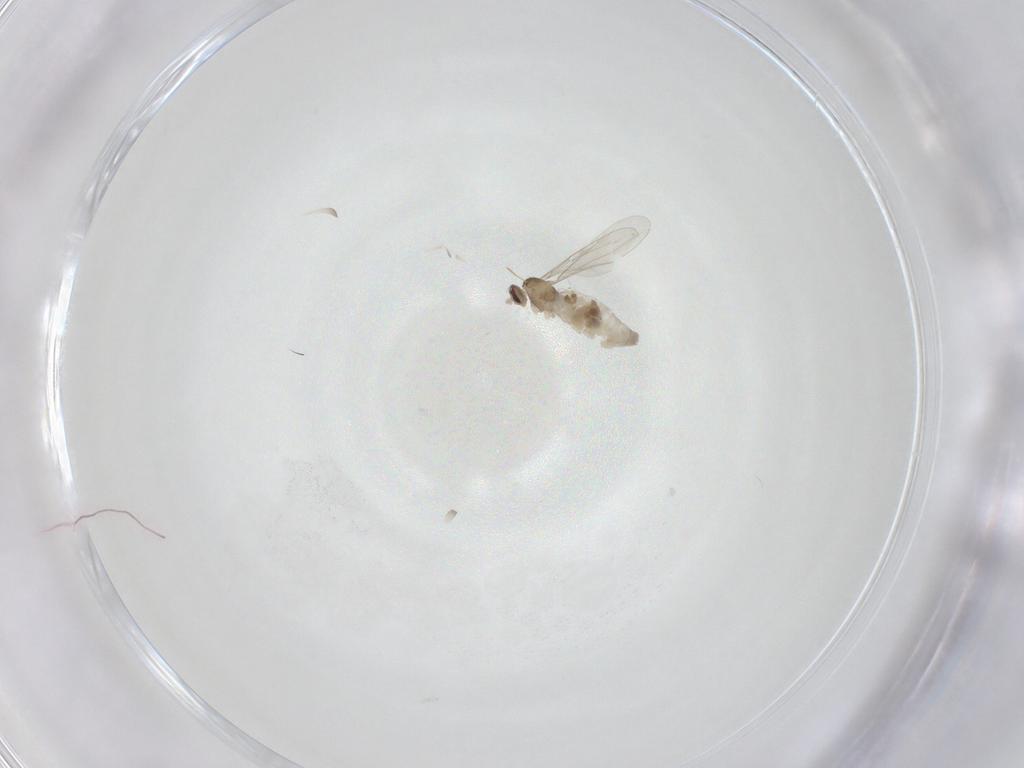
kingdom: Animalia
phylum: Arthropoda
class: Insecta
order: Diptera
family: Cecidomyiidae
